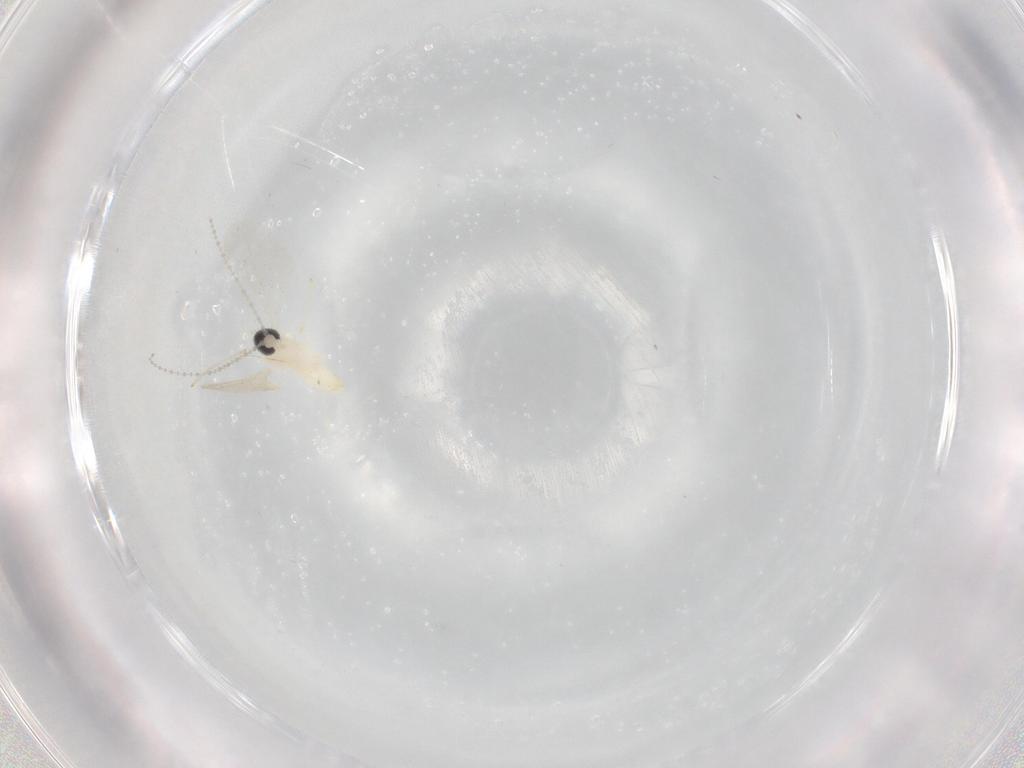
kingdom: Animalia
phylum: Arthropoda
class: Insecta
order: Diptera
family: Cecidomyiidae
